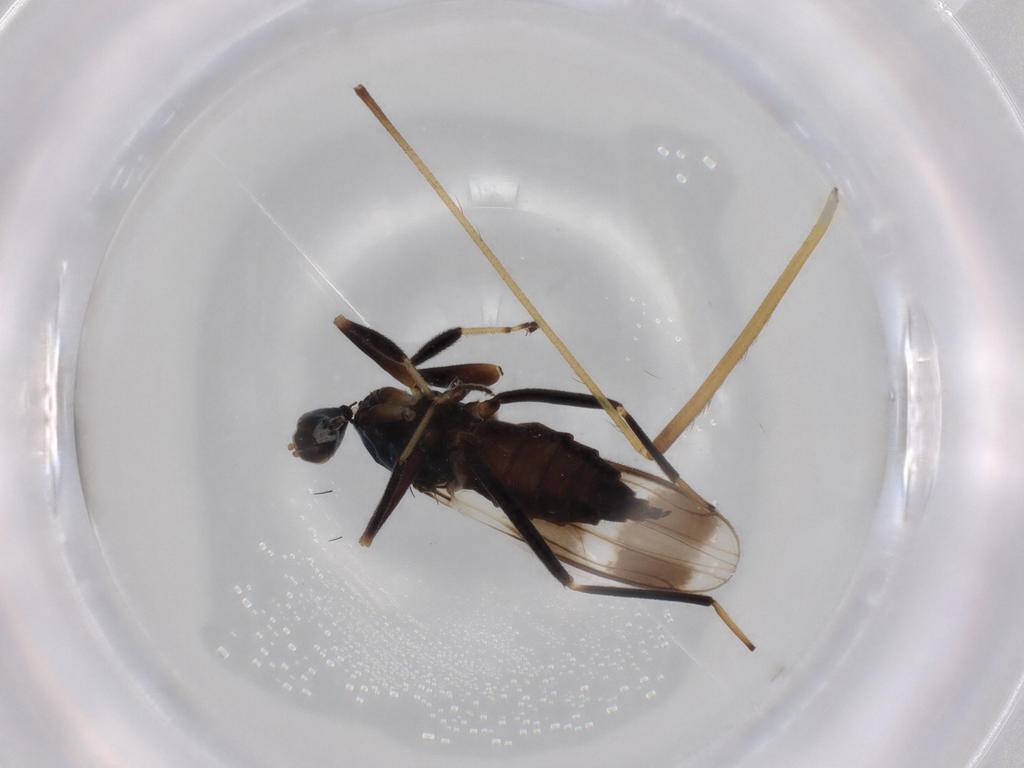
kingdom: Animalia
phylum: Arthropoda
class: Insecta
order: Diptera
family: Hybotidae
